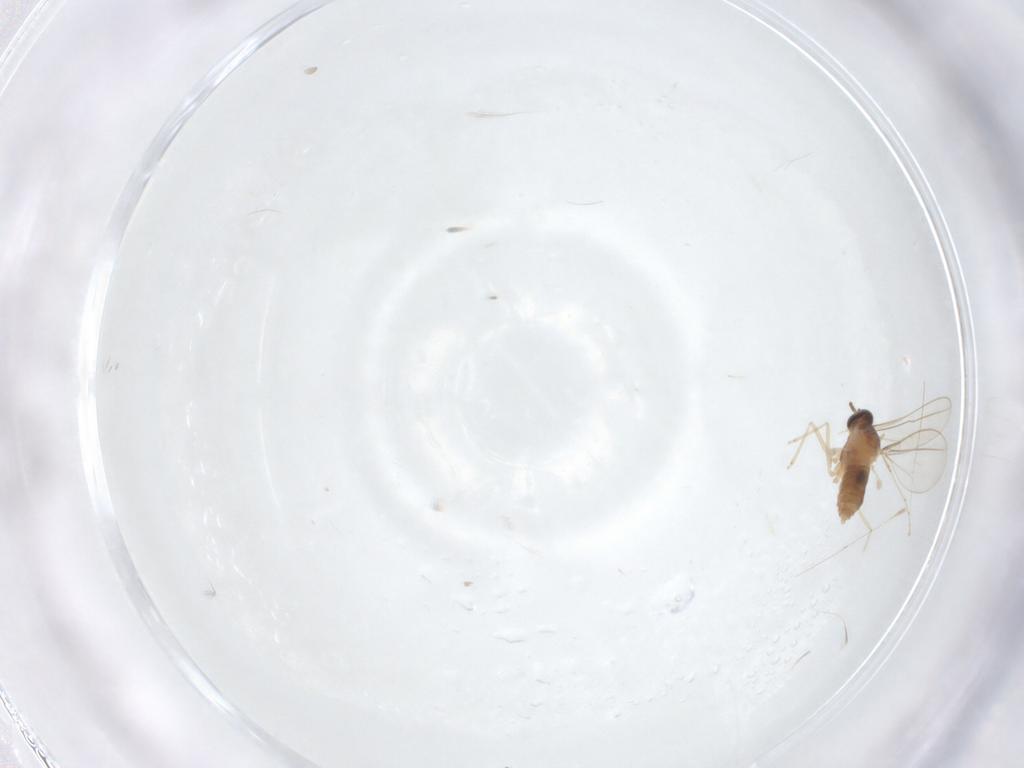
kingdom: Animalia
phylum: Arthropoda
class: Insecta
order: Diptera
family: Cecidomyiidae
